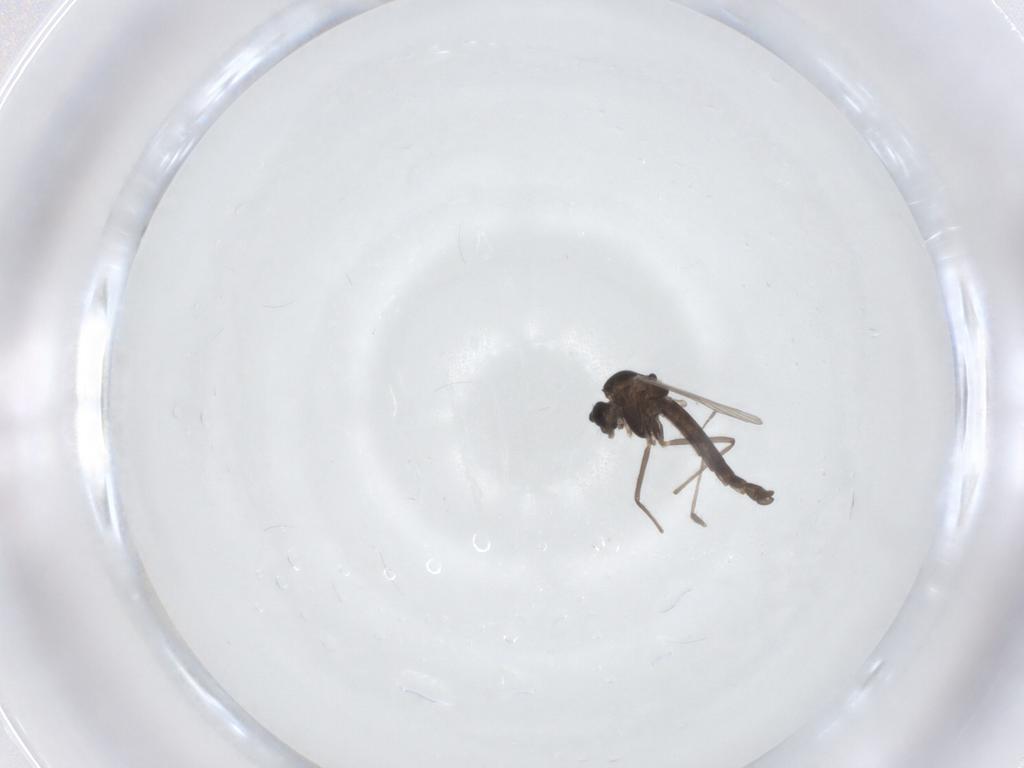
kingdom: Animalia
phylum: Arthropoda
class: Insecta
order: Diptera
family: Chironomidae
